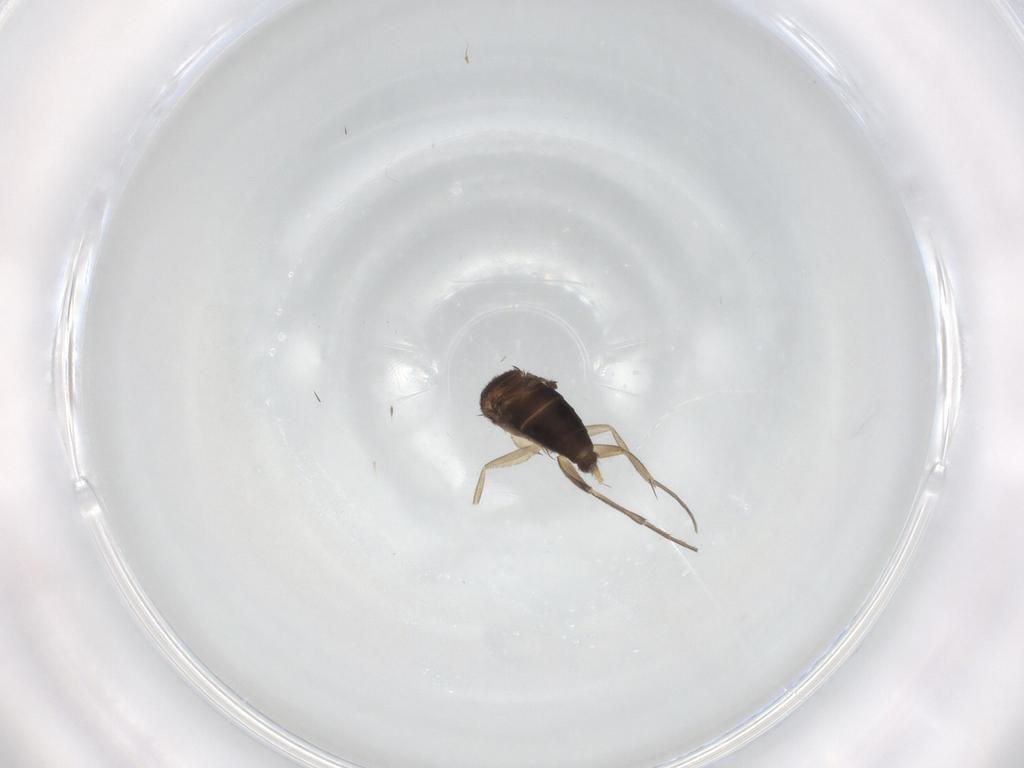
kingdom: Animalia
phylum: Arthropoda
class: Insecta
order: Diptera
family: Phoridae
